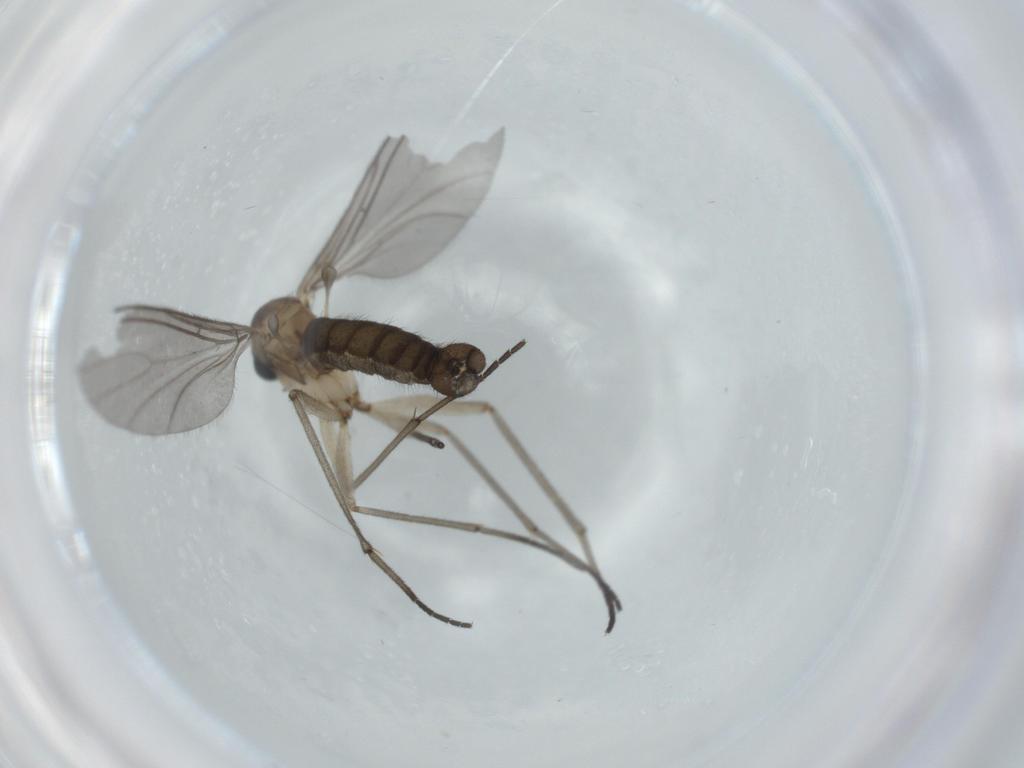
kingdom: Animalia
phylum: Arthropoda
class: Insecta
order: Diptera
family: Sciaridae
